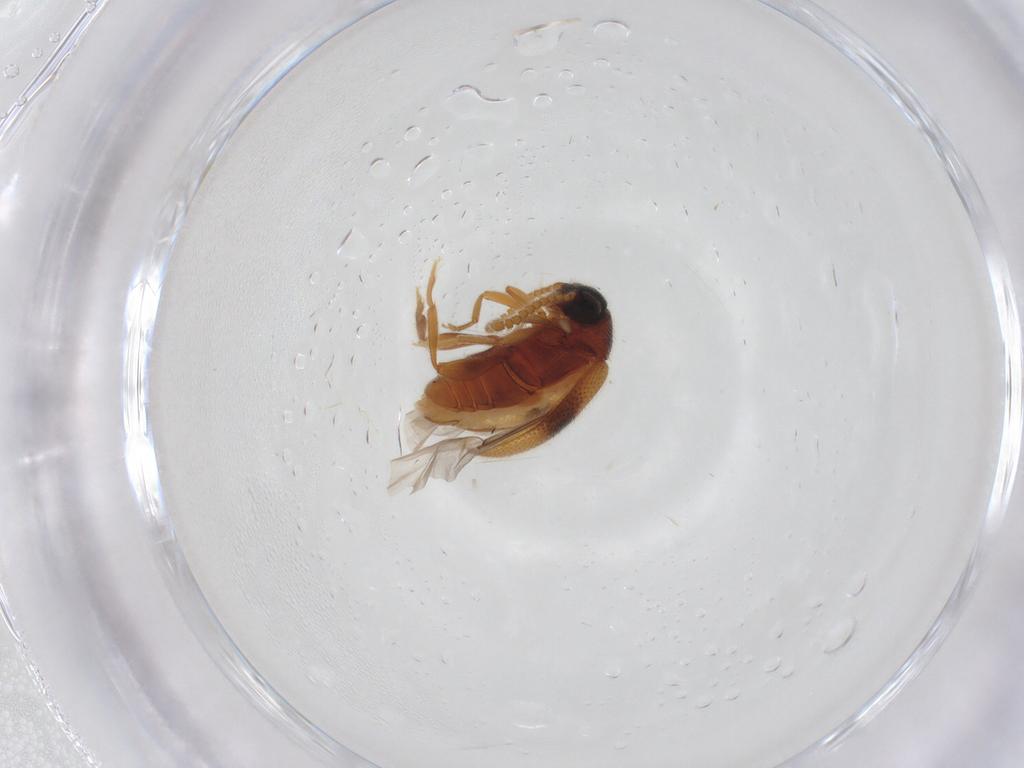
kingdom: Animalia
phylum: Arthropoda
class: Insecta
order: Coleoptera
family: Aderidae
